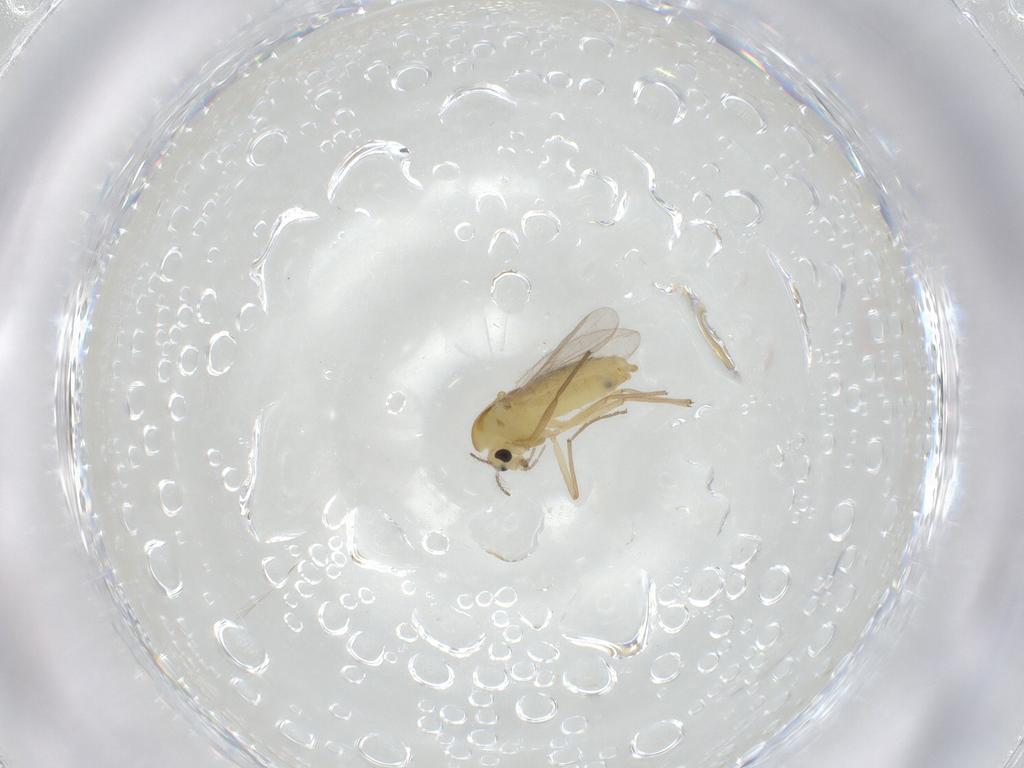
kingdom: Animalia
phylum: Arthropoda
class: Insecta
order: Diptera
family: Chironomidae
